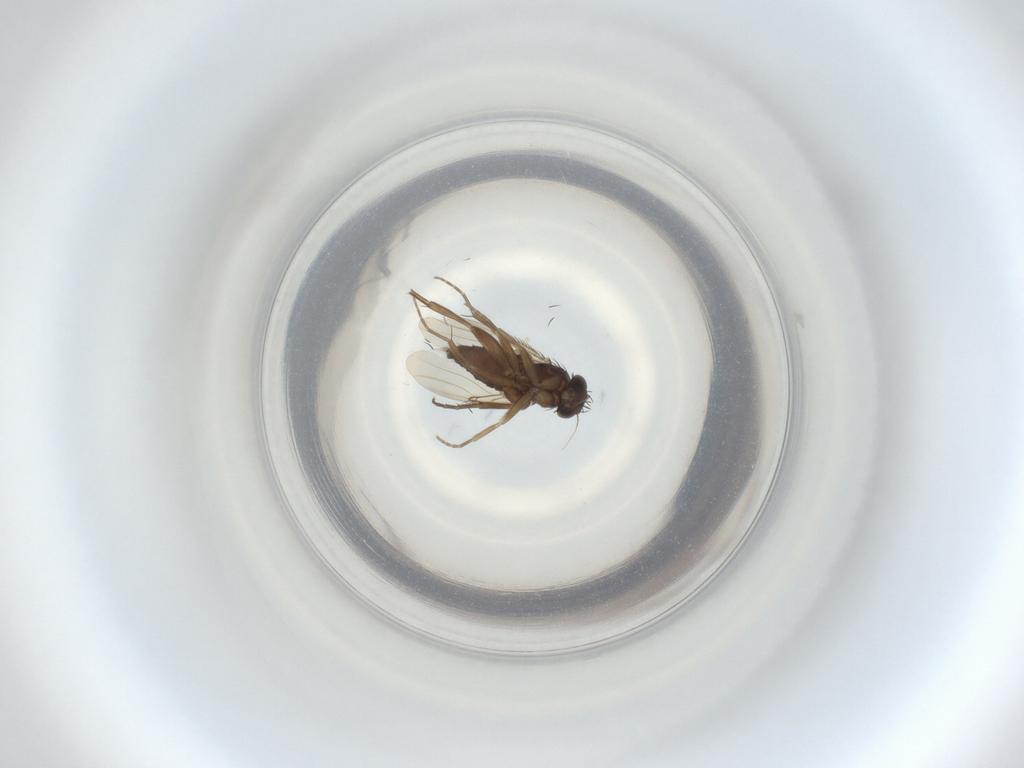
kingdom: Animalia
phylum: Arthropoda
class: Insecta
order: Diptera
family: Phoridae
